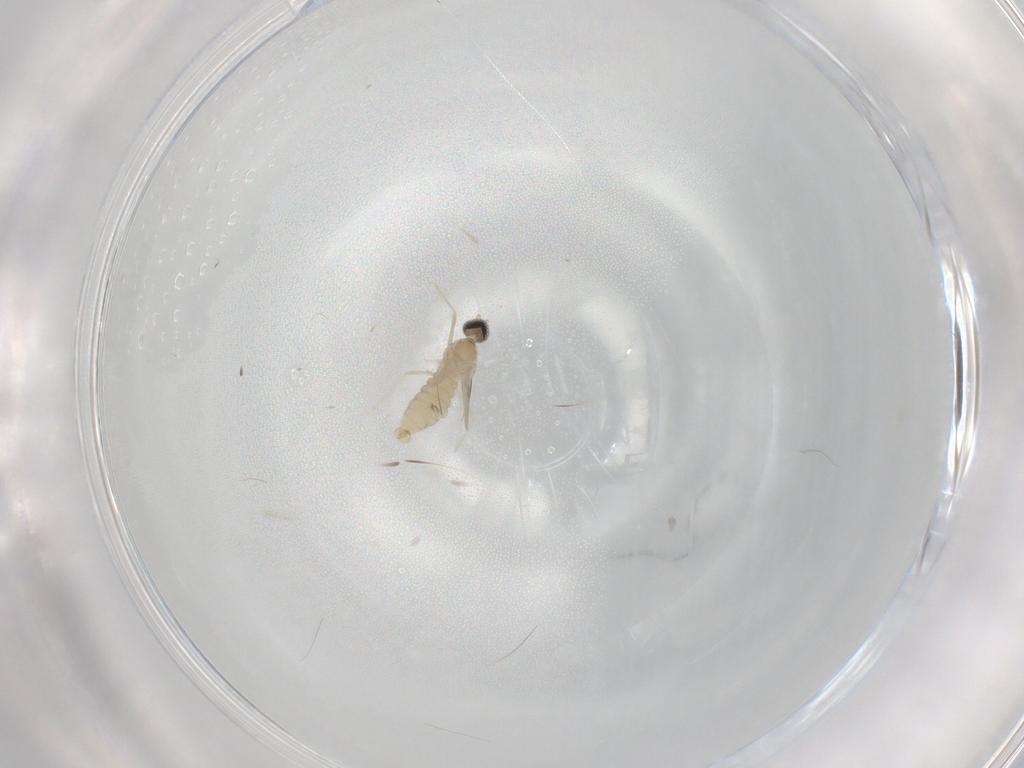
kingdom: Animalia
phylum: Arthropoda
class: Insecta
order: Diptera
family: Cecidomyiidae
